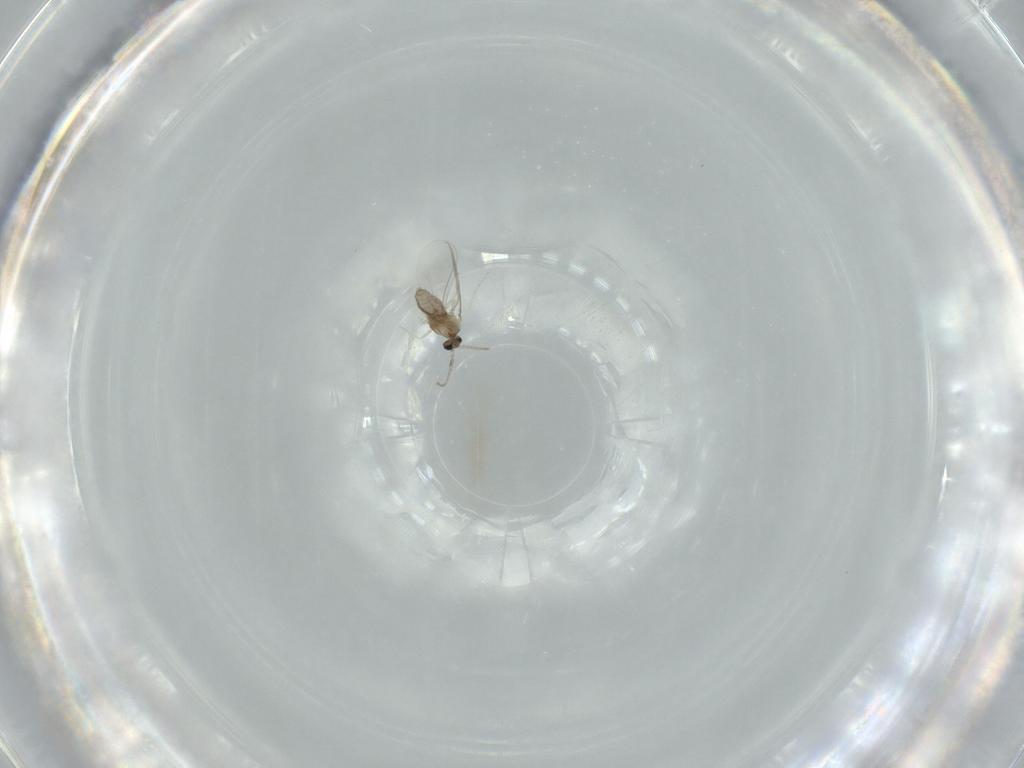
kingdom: Animalia
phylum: Arthropoda
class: Insecta
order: Diptera
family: Cecidomyiidae
